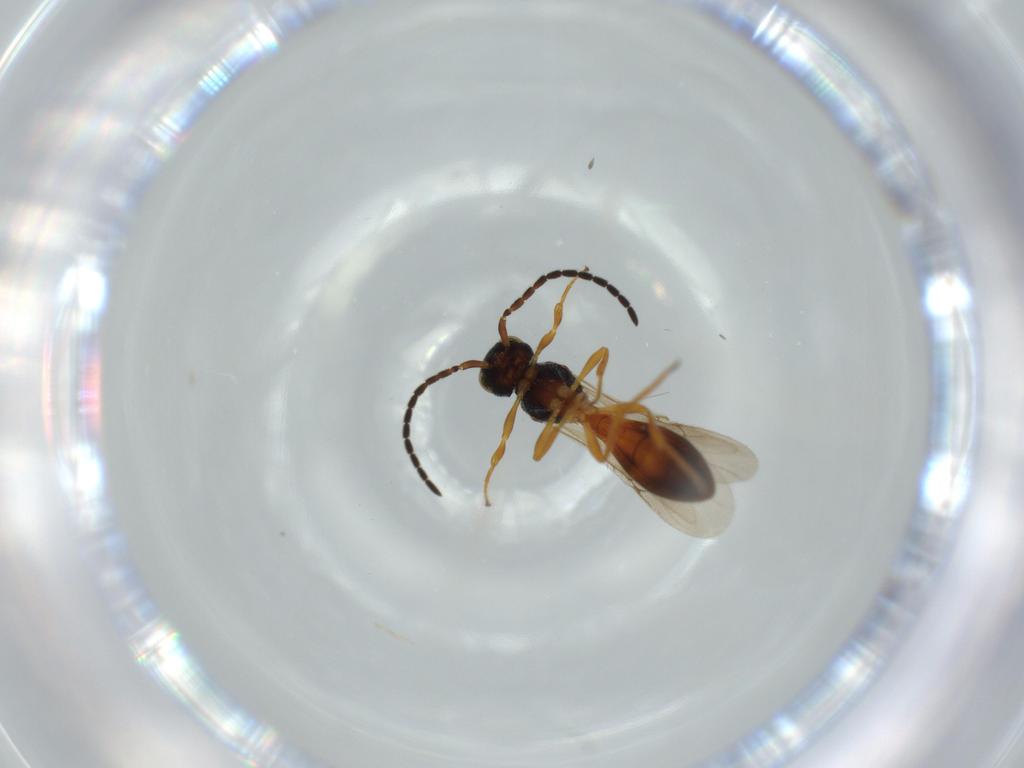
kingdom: Animalia
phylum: Arthropoda
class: Insecta
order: Hymenoptera
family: Scelionidae
